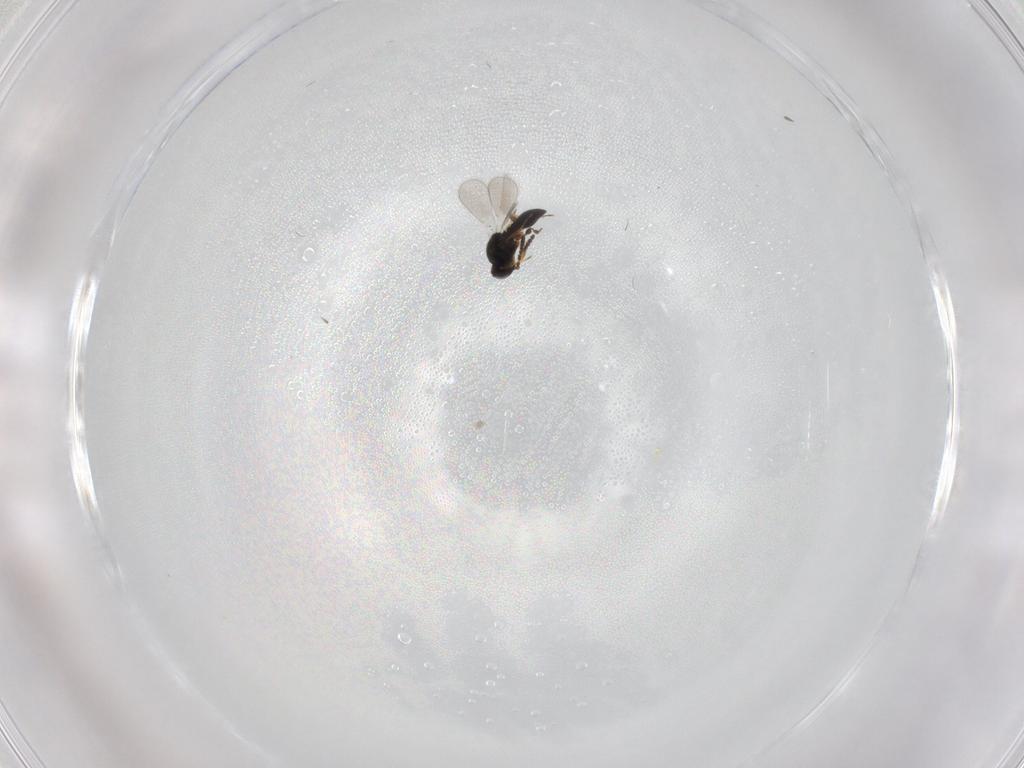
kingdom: Animalia
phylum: Arthropoda
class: Insecta
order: Hymenoptera
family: Platygastridae
